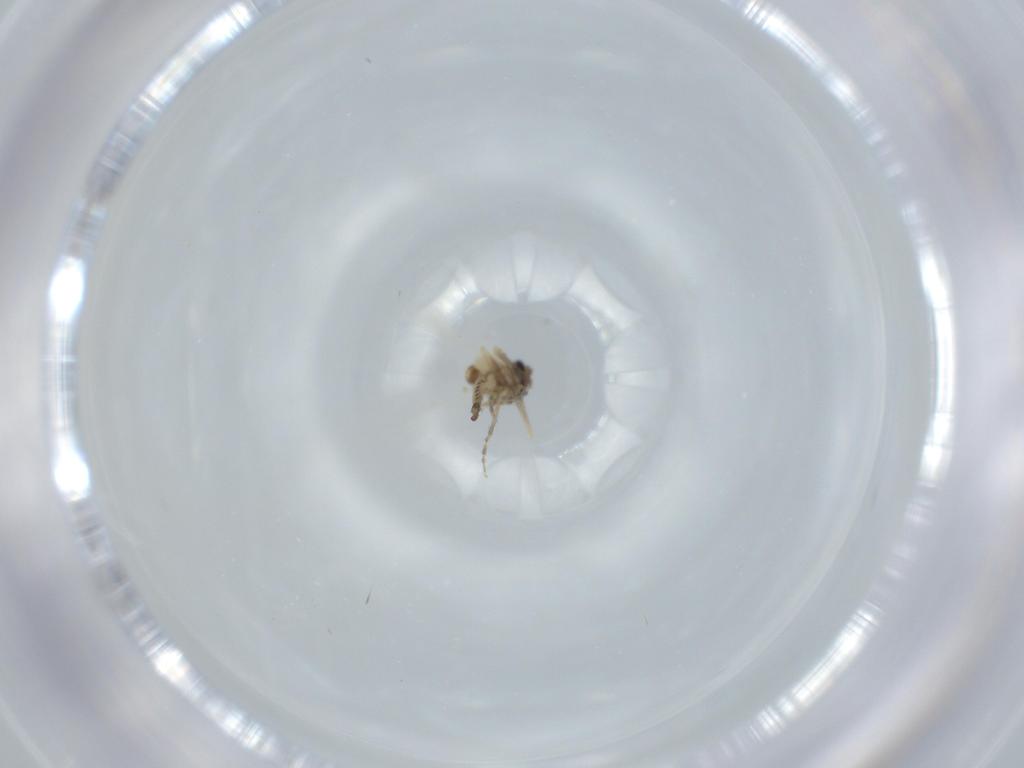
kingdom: Animalia
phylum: Arthropoda
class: Insecta
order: Diptera
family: Ceratopogonidae
